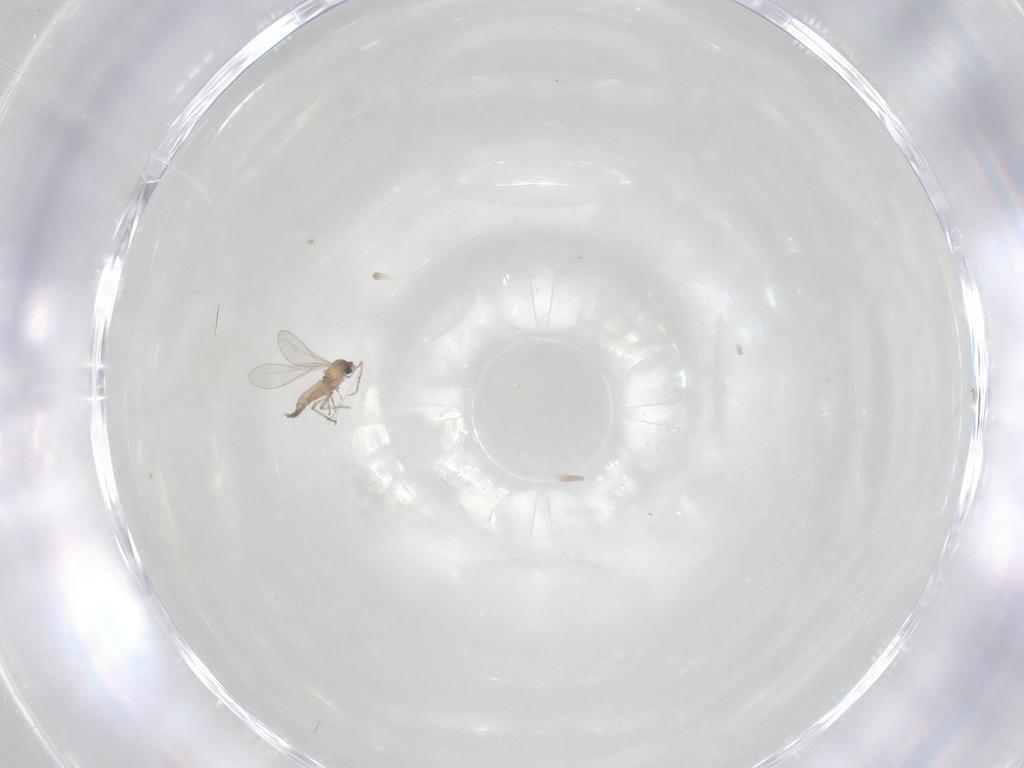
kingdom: Animalia
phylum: Arthropoda
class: Insecta
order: Diptera
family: Cecidomyiidae
